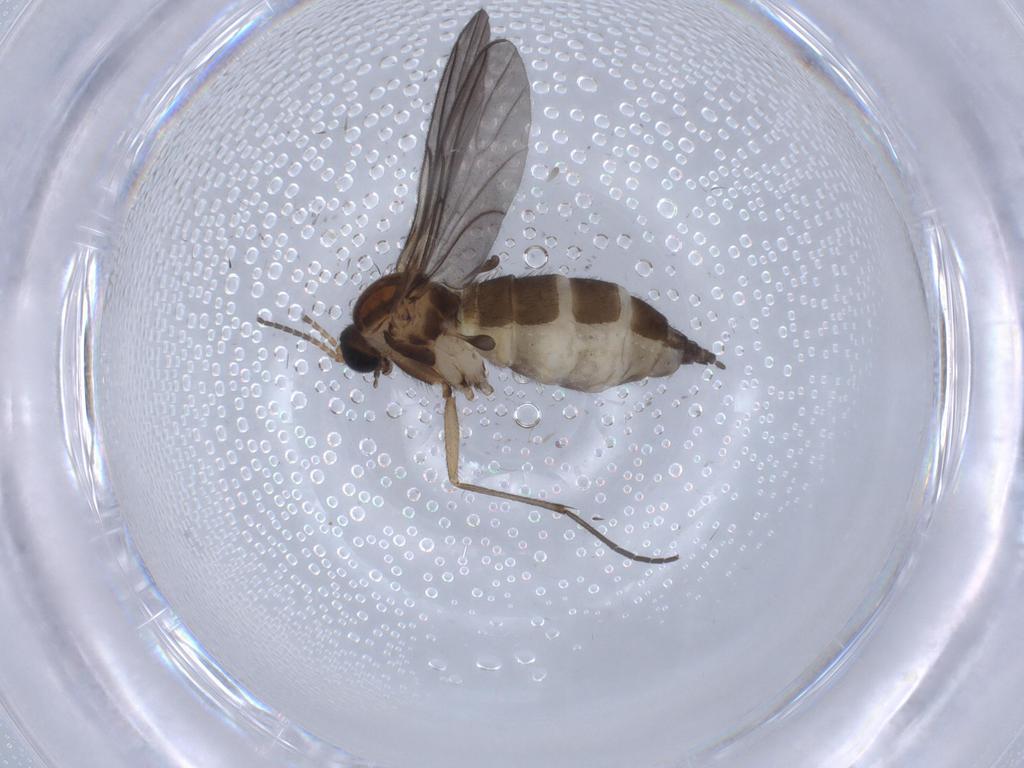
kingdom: Animalia
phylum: Arthropoda
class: Insecta
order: Diptera
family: Sciaridae
